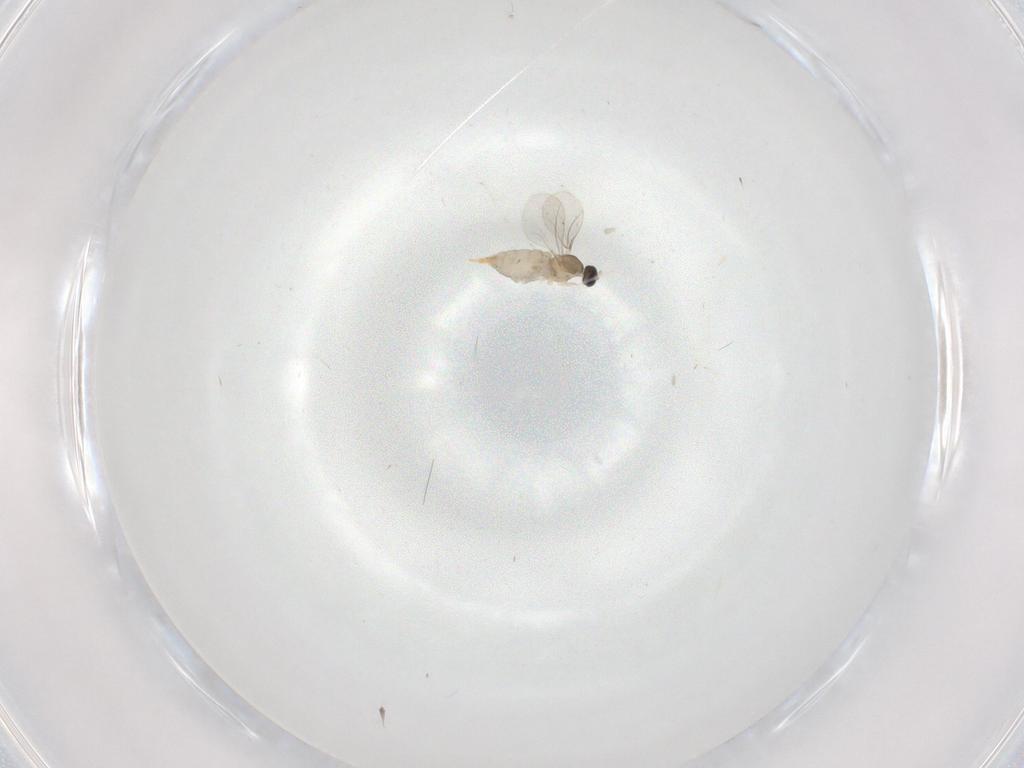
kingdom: Animalia
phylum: Arthropoda
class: Insecta
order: Diptera
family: Cecidomyiidae
